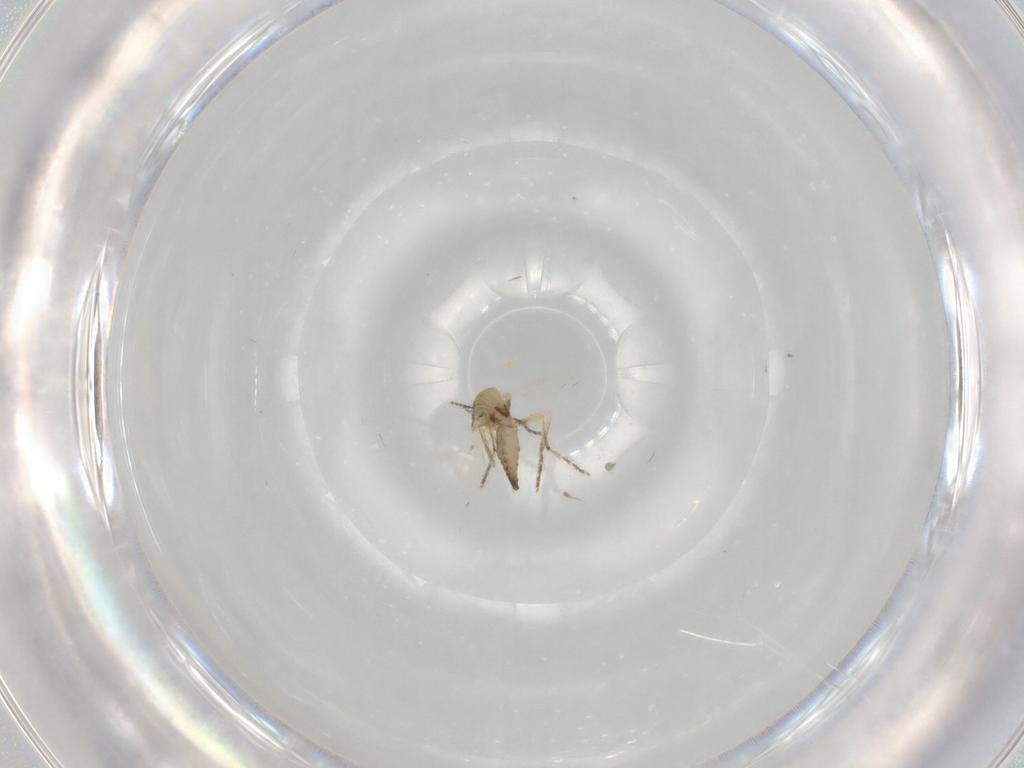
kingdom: Animalia
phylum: Arthropoda
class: Insecta
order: Diptera
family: Ceratopogonidae
